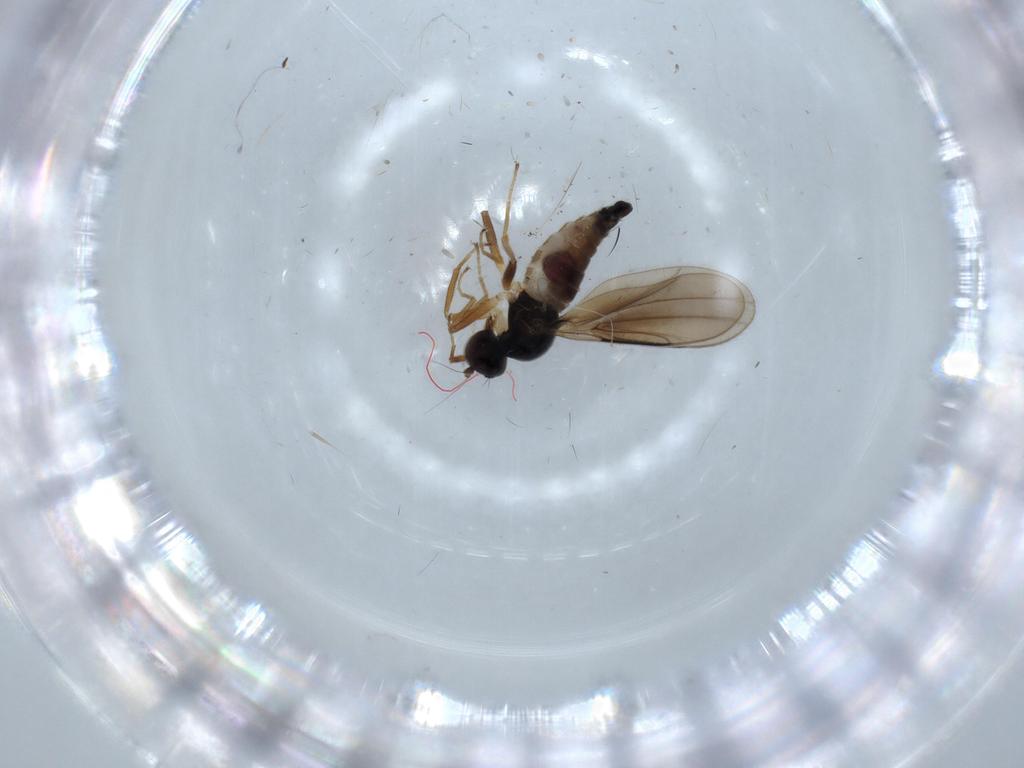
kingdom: Animalia
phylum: Arthropoda
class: Insecta
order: Diptera
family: Hybotidae
